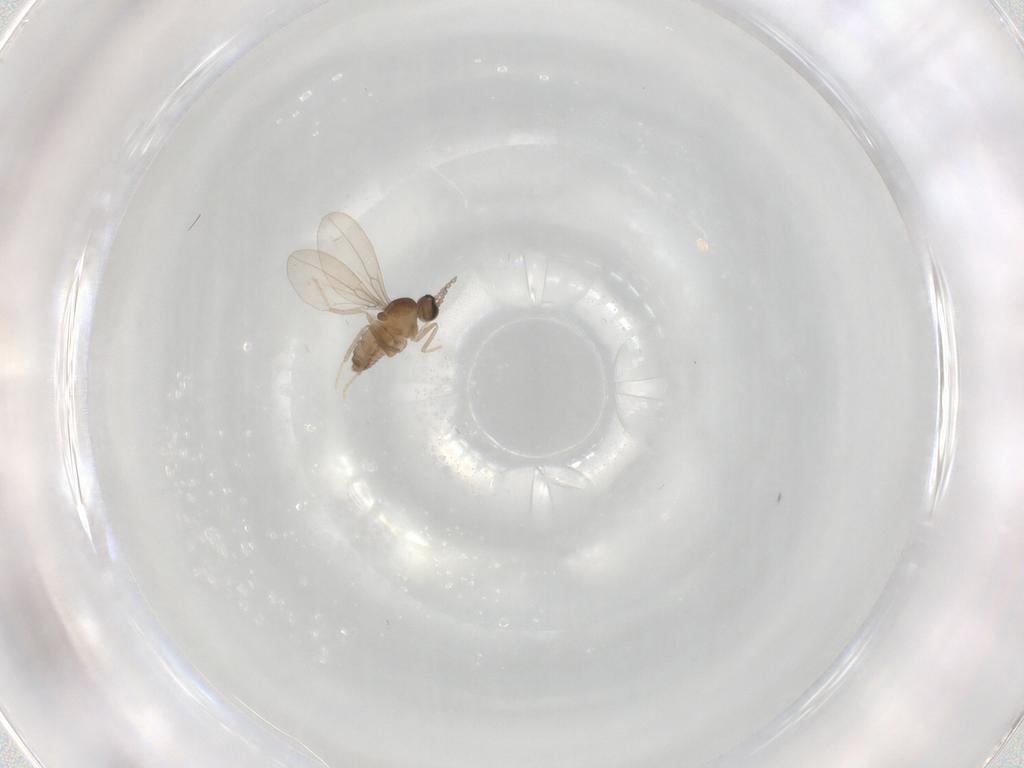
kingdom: Animalia
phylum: Arthropoda
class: Insecta
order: Diptera
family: Cecidomyiidae
